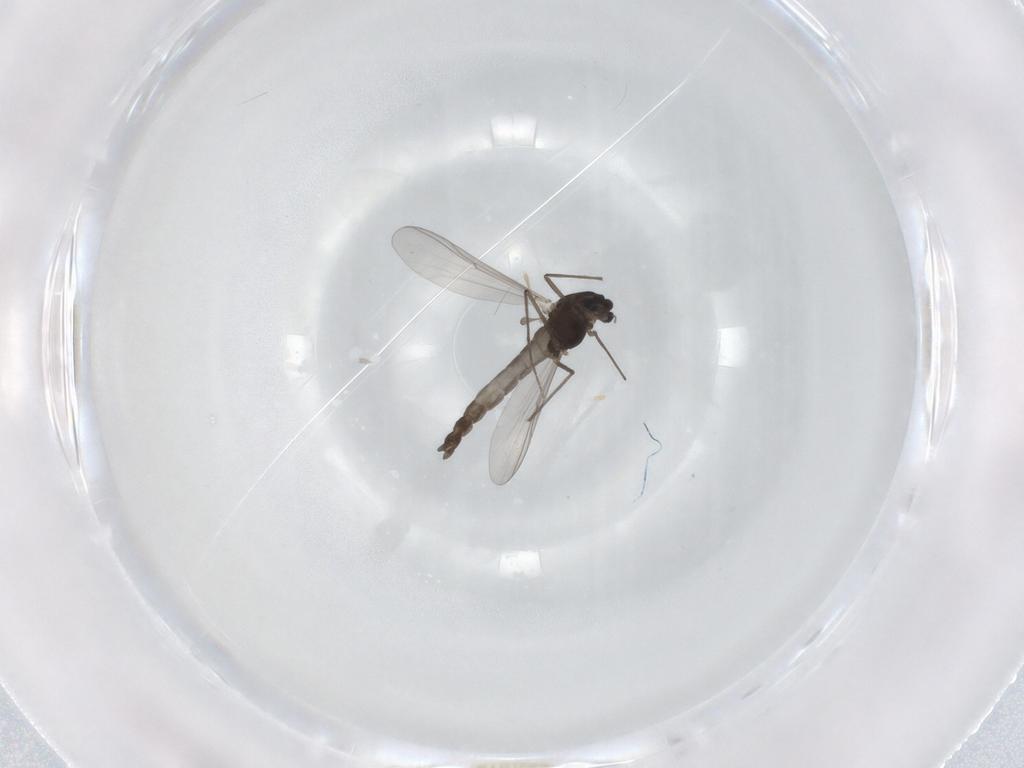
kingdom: Animalia
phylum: Arthropoda
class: Insecta
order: Diptera
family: Chironomidae
